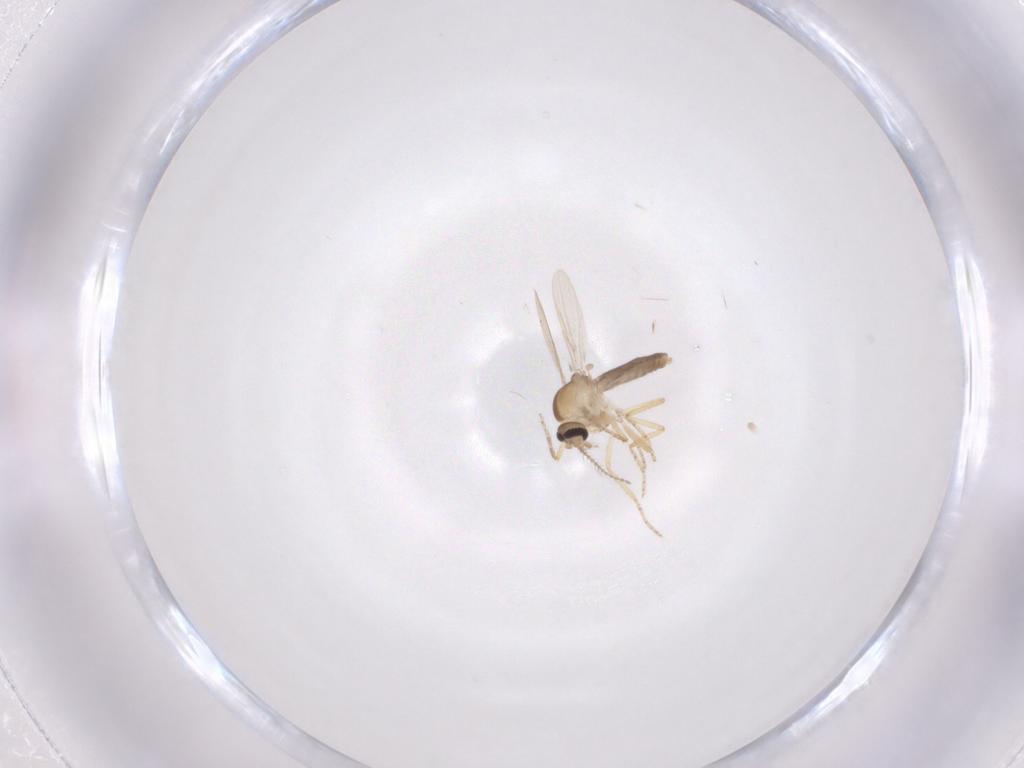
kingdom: Animalia
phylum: Arthropoda
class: Insecta
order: Diptera
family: Ceratopogonidae
